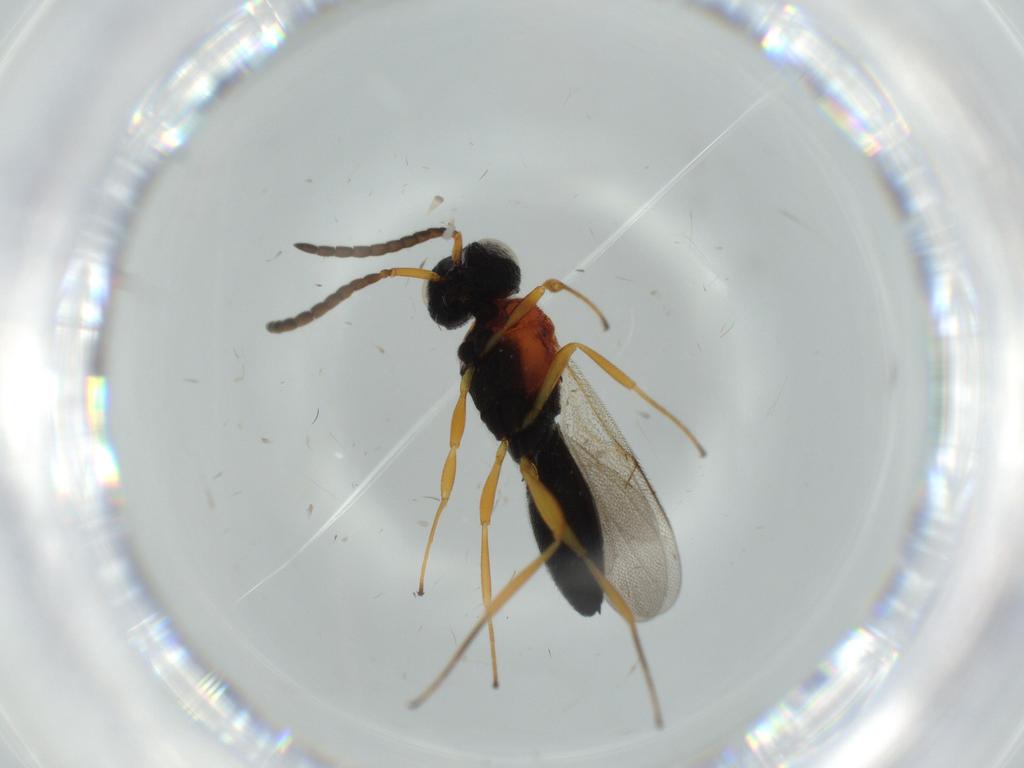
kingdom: Animalia
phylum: Arthropoda
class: Insecta
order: Hymenoptera
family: Scelionidae
